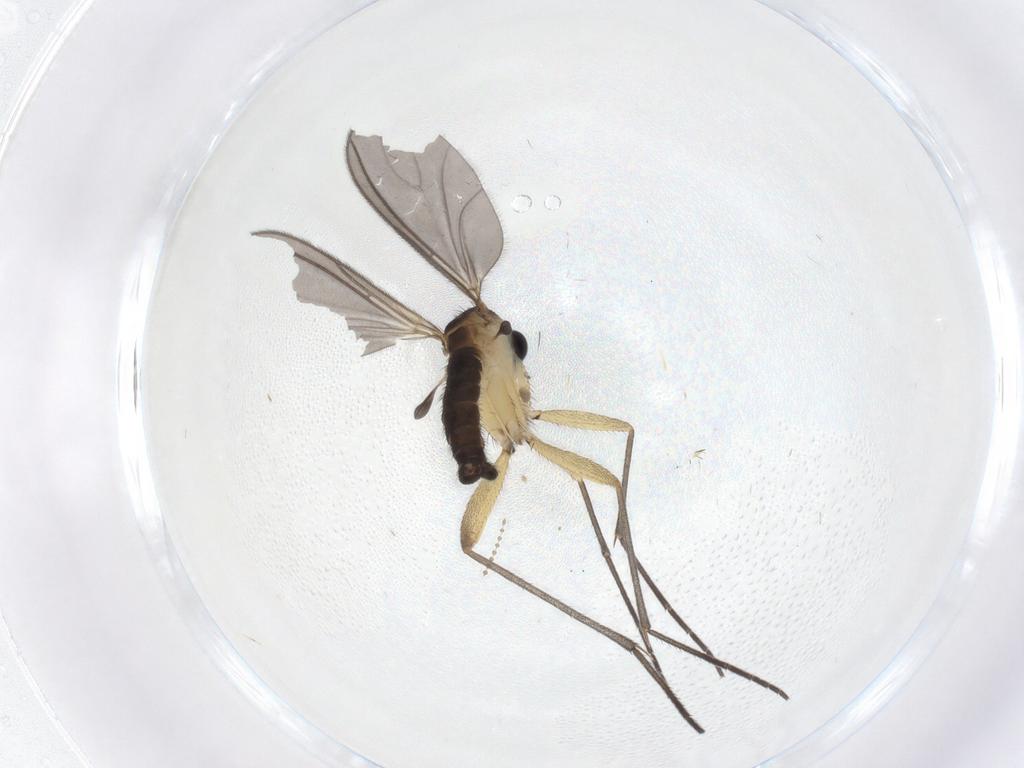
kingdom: Animalia
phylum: Arthropoda
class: Insecta
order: Diptera
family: Sciaridae
